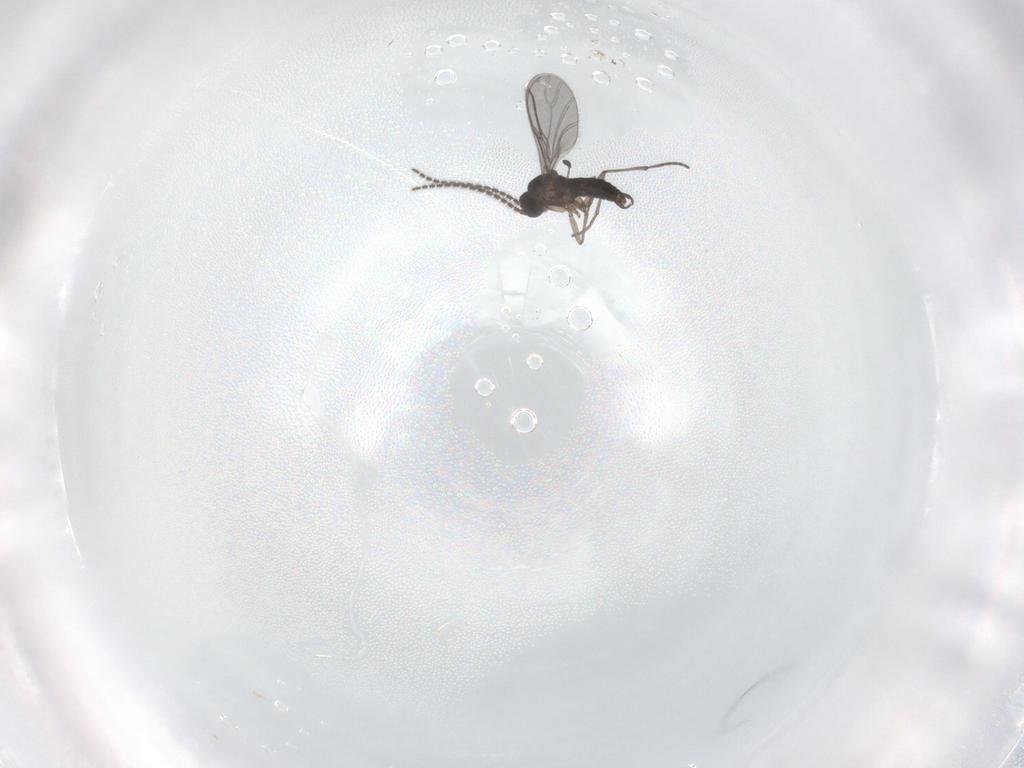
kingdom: Animalia
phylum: Arthropoda
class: Insecta
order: Diptera
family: Sciaridae
